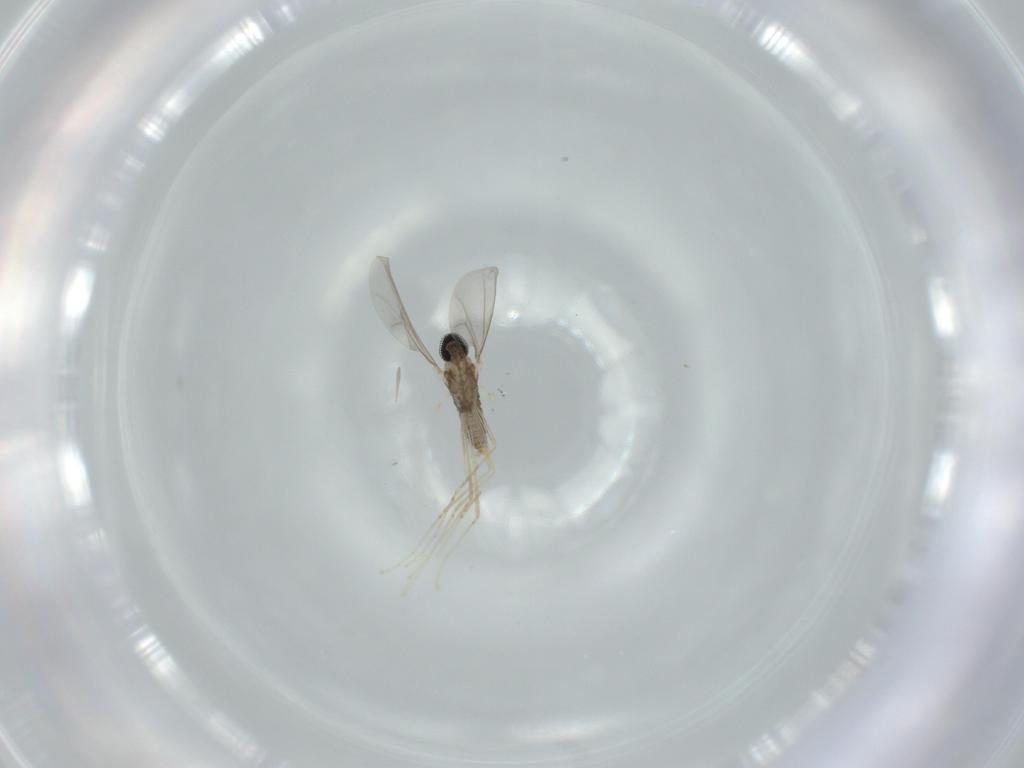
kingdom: Animalia
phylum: Arthropoda
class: Insecta
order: Diptera
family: Cecidomyiidae
